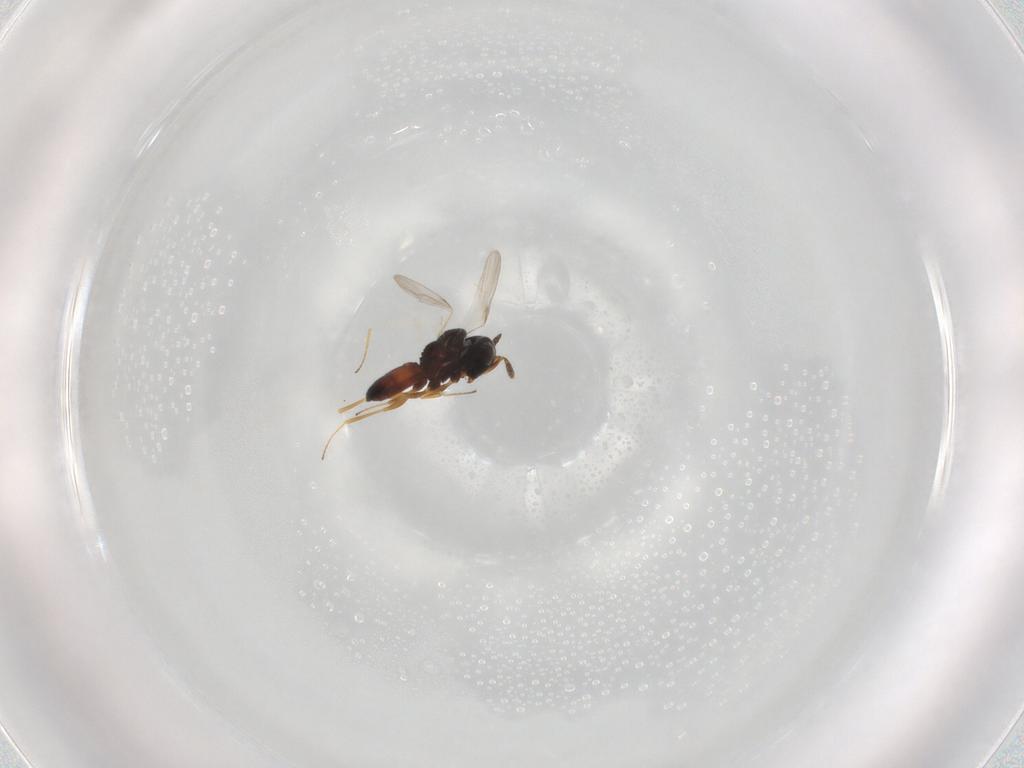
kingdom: Animalia
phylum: Arthropoda
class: Insecta
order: Hymenoptera
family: Scelionidae
